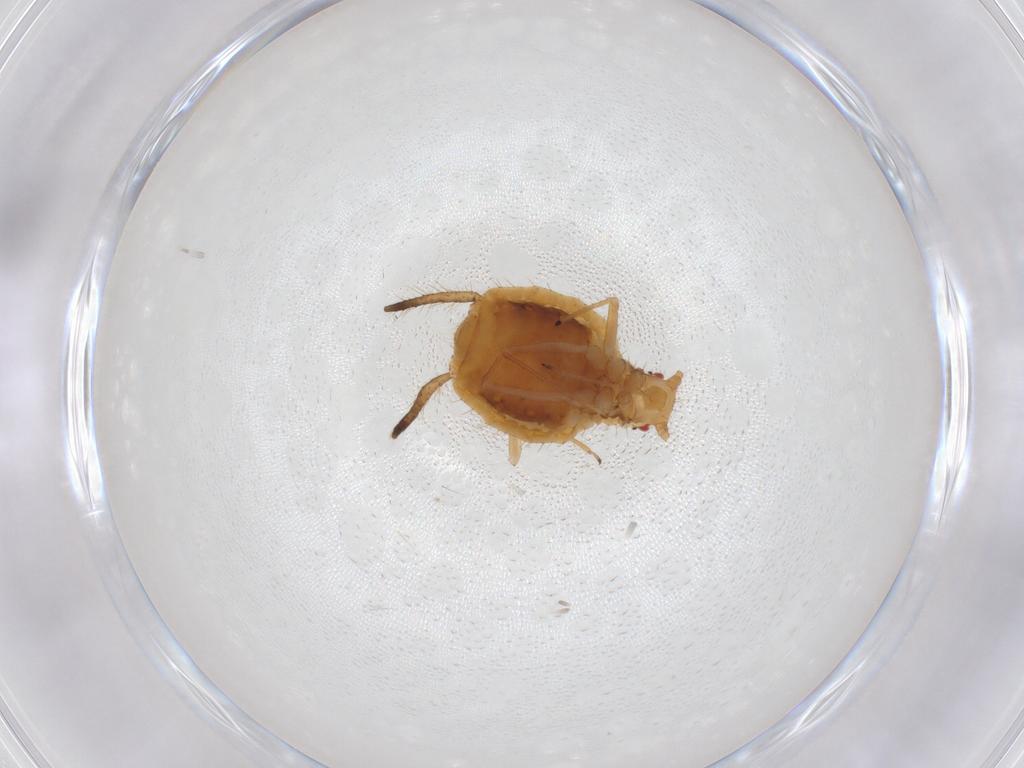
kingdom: Animalia
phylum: Arthropoda
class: Insecta
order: Hemiptera
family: Aphididae
